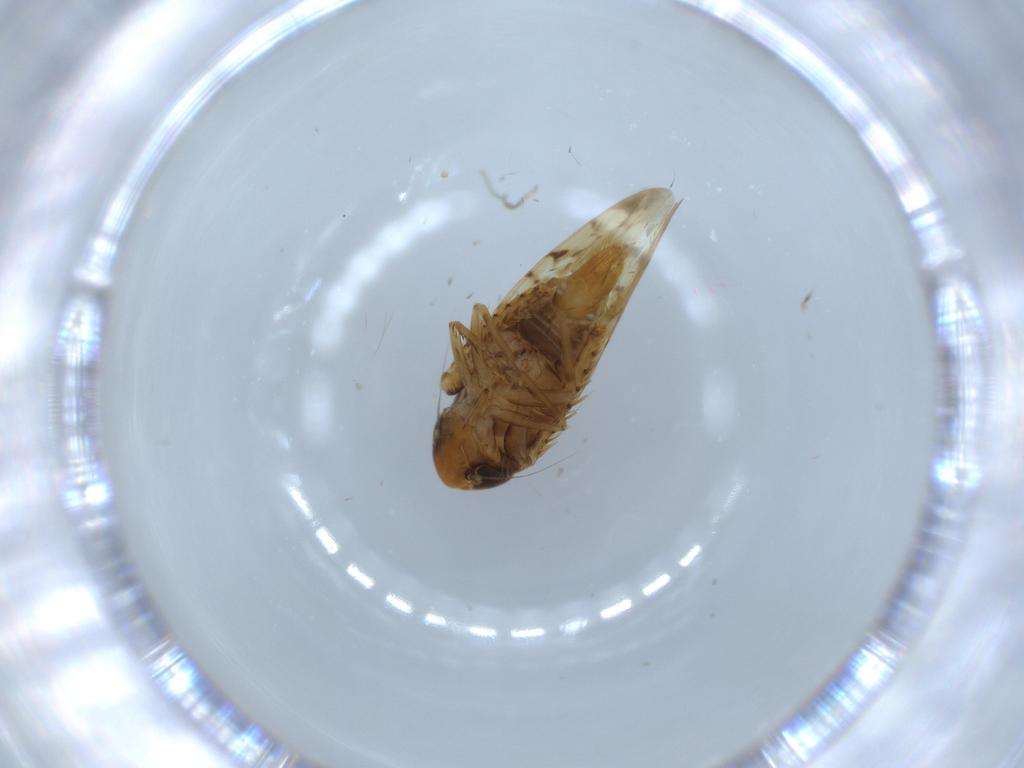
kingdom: Animalia
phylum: Arthropoda
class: Insecta
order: Hemiptera
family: Cicadellidae
